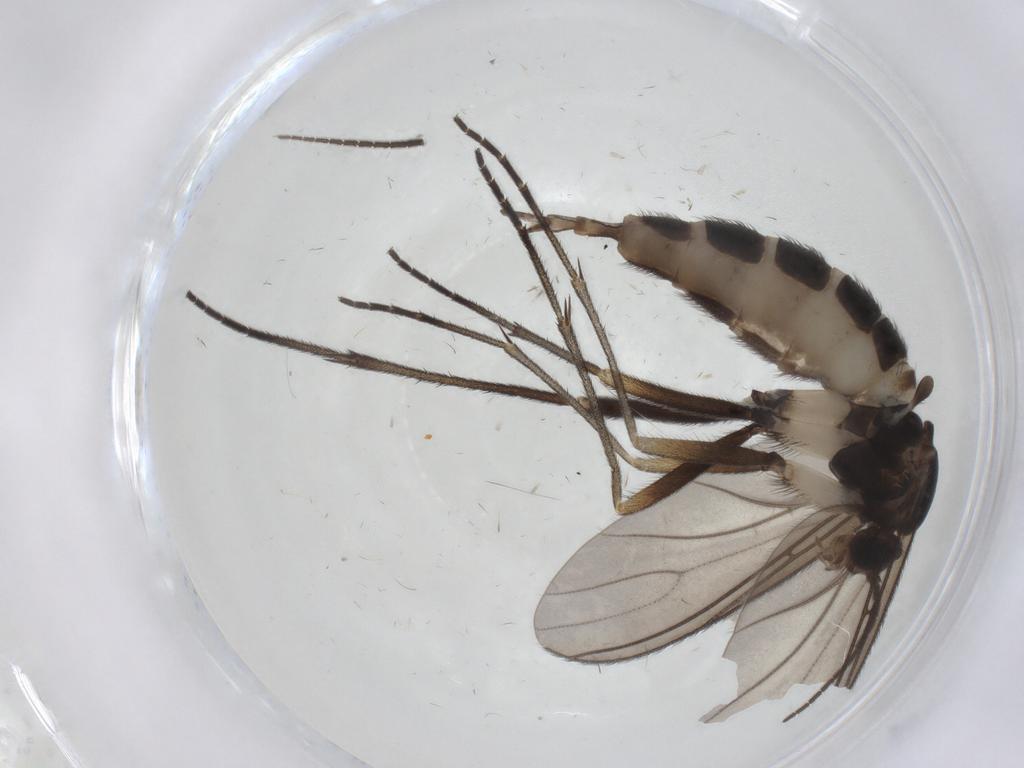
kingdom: Animalia
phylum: Arthropoda
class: Insecta
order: Diptera
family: Sciaridae
